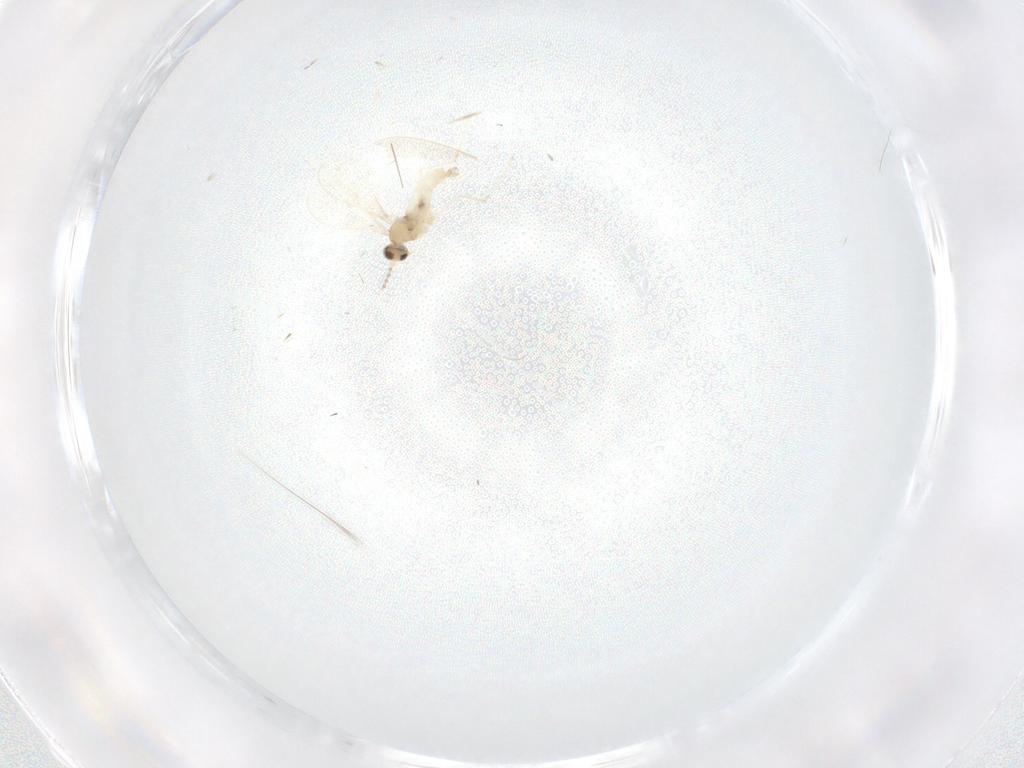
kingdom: Animalia
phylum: Arthropoda
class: Insecta
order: Diptera
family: Cecidomyiidae
